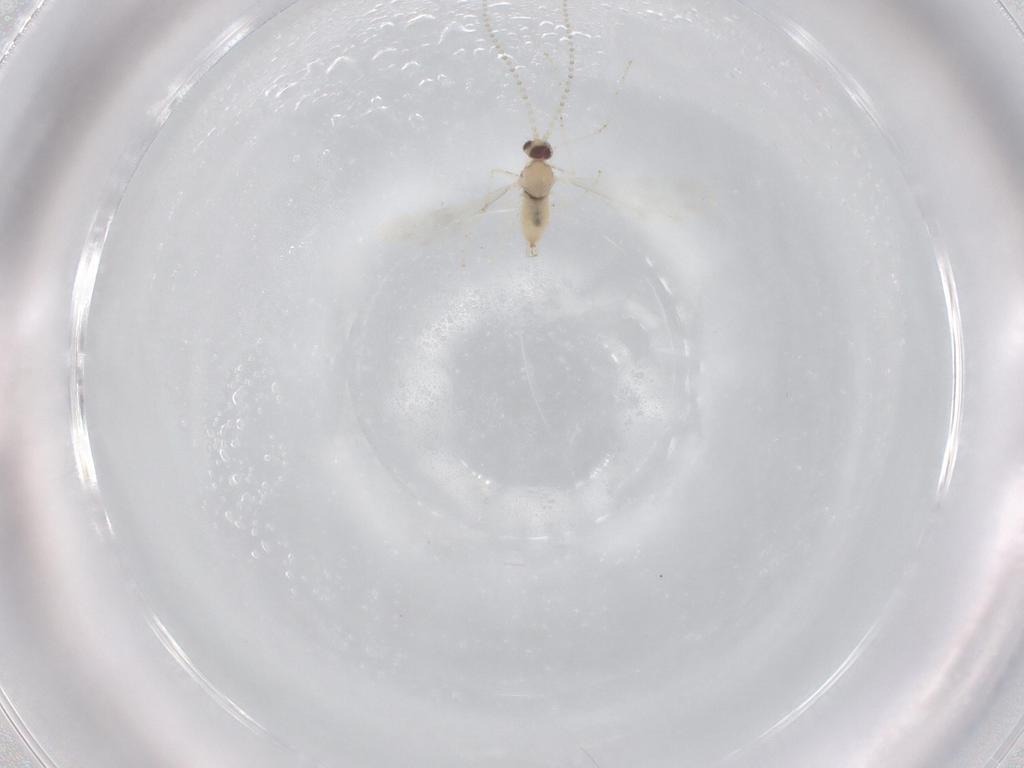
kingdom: Animalia
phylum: Arthropoda
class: Insecta
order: Diptera
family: Cecidomyiidae
